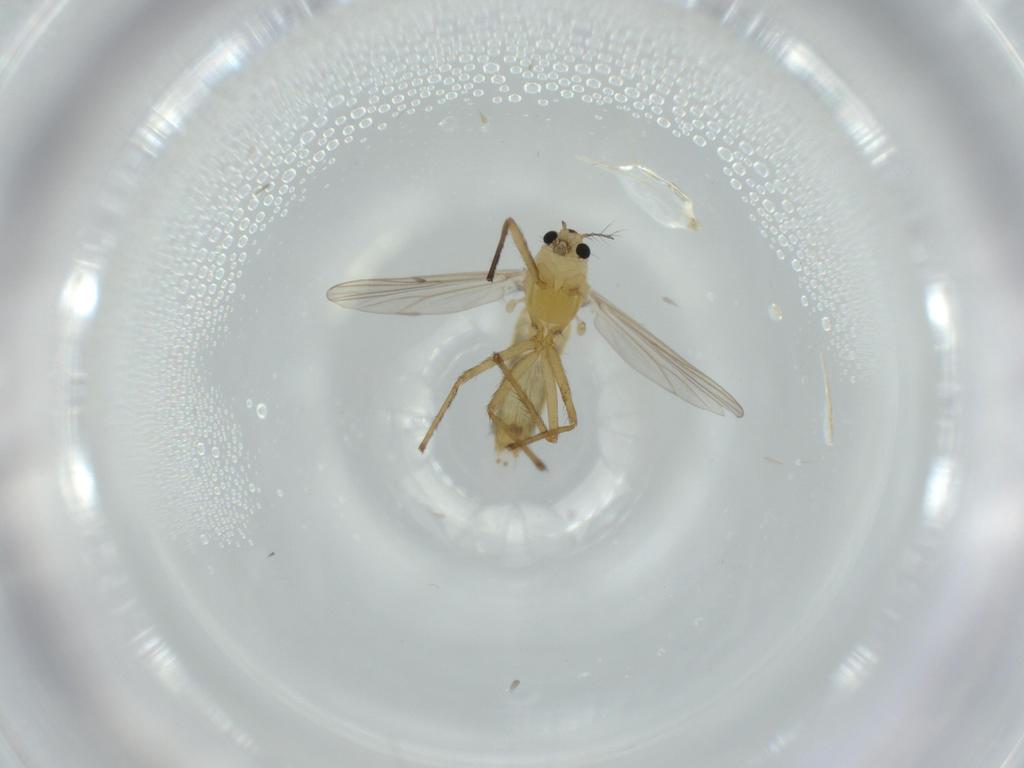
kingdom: Animalia
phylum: Arthropoda
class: Insecta
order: Diptera
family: Chironomidae
